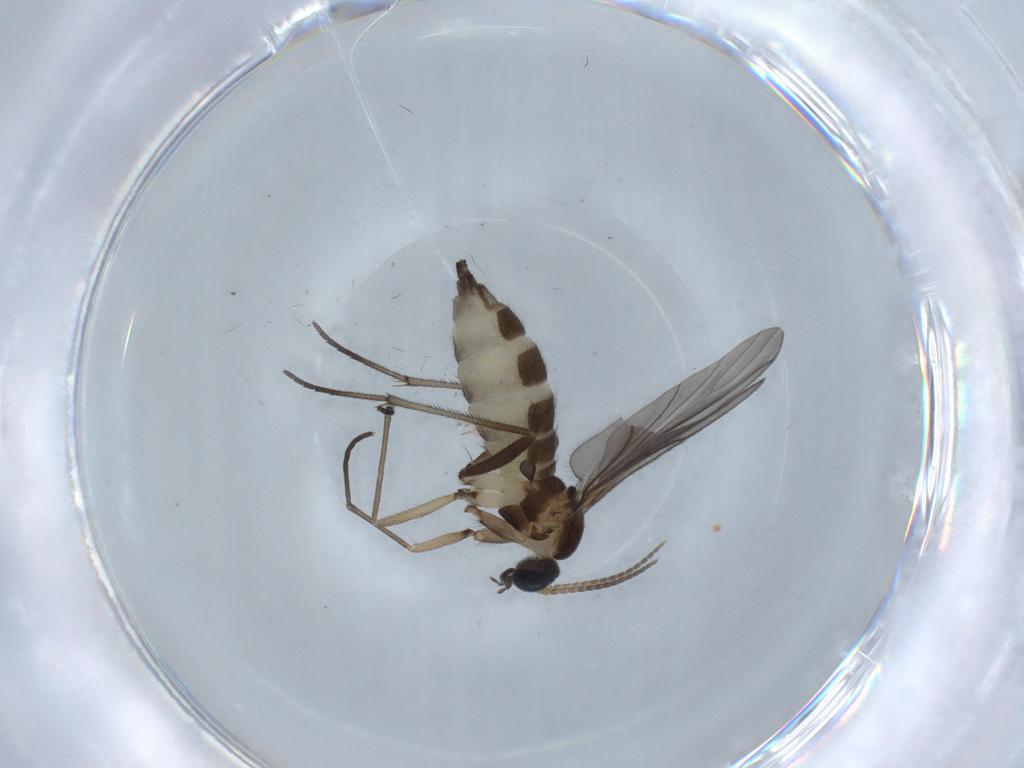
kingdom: Animalia
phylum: Arthropoda
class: Insecta
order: Diptera
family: Sciaridae
